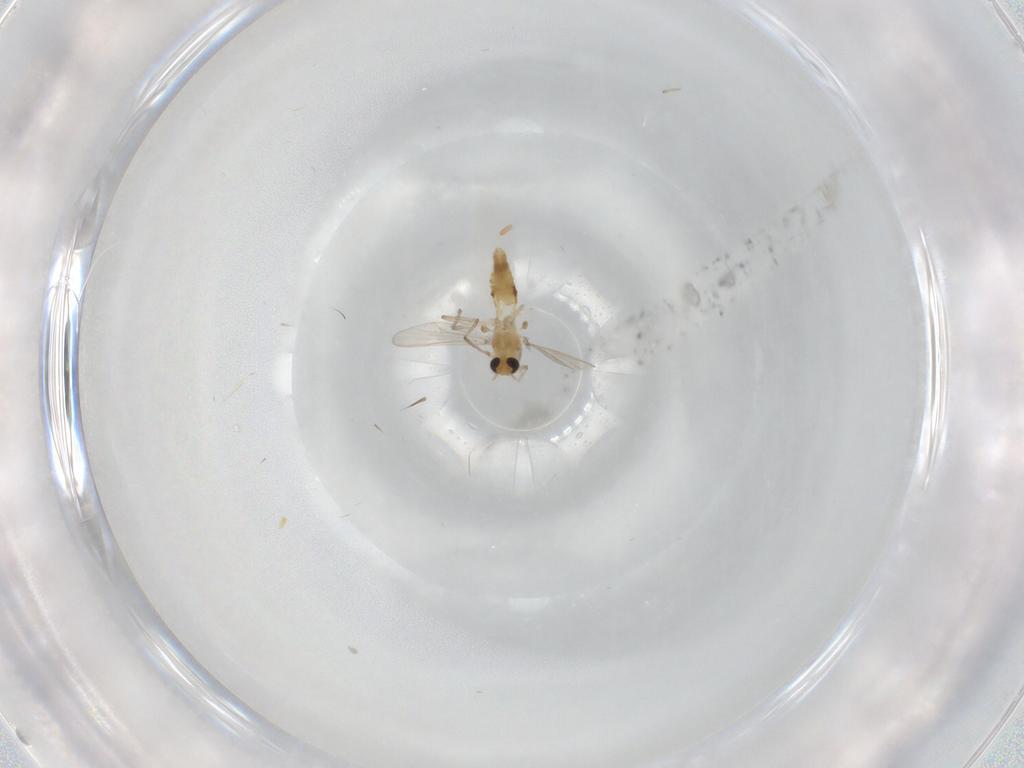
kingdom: Animalia
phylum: Arthropoda
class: Insecta
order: Diptera
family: Chironomidae
